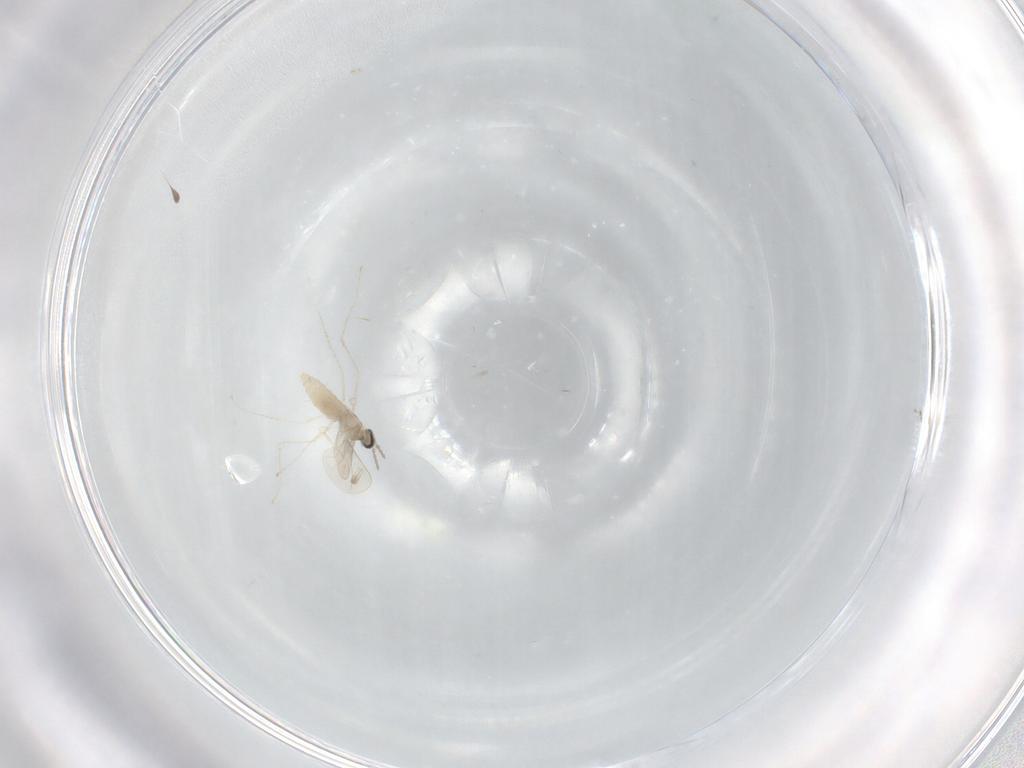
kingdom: Animalia
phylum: Arthropoda
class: Insecta
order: Diptera
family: Cecidomyiidae
